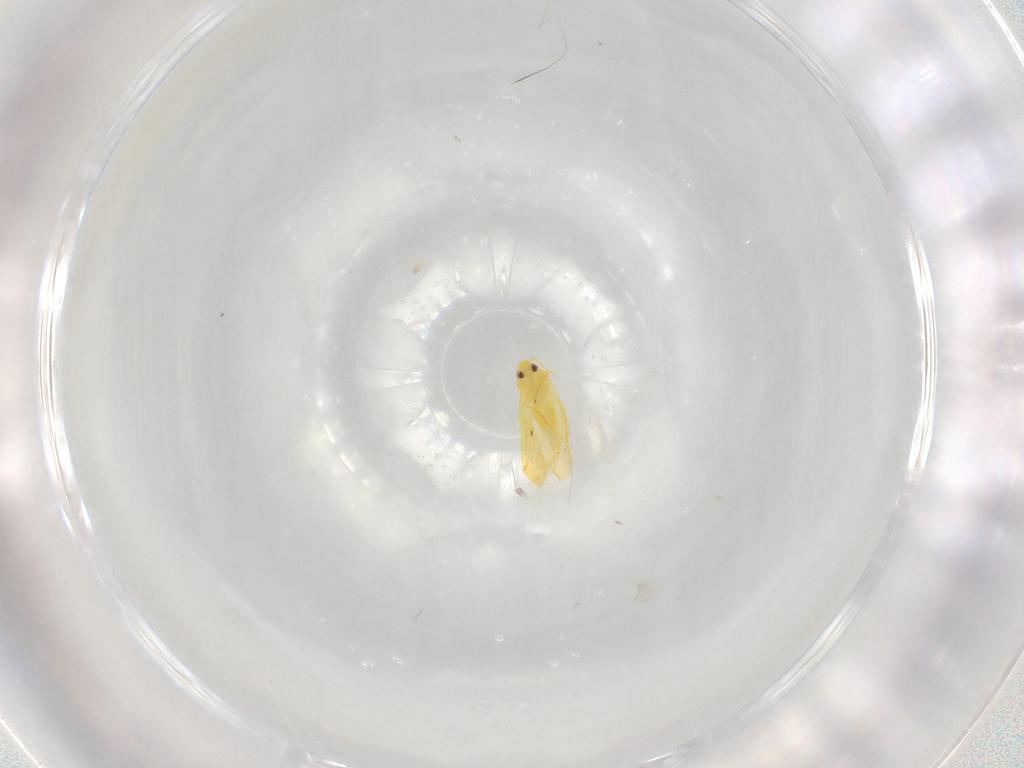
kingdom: Animalia
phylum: Arthropoda
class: Insecta
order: Hemiptera
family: Aleyrodidae
